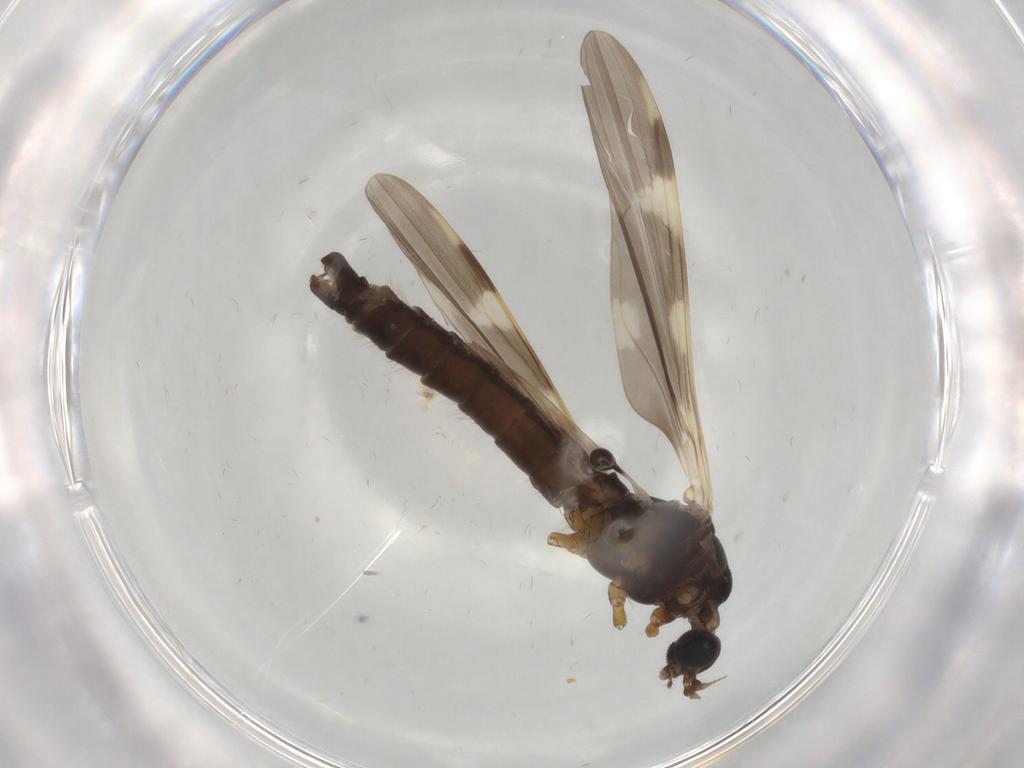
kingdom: Animalia
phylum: Arthropoda
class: Insecta
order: Diptera
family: Platystomatidae
